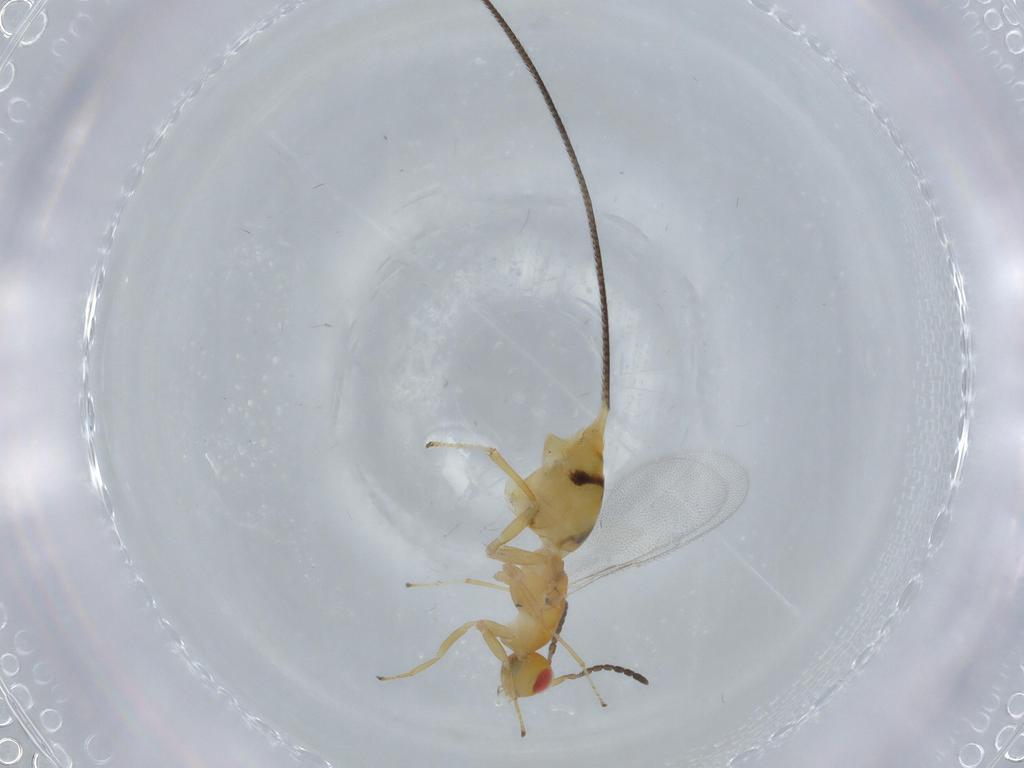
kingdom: Animalia
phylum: Arthropoda
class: Insecta
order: Hymenoptera
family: Pteromalidae
